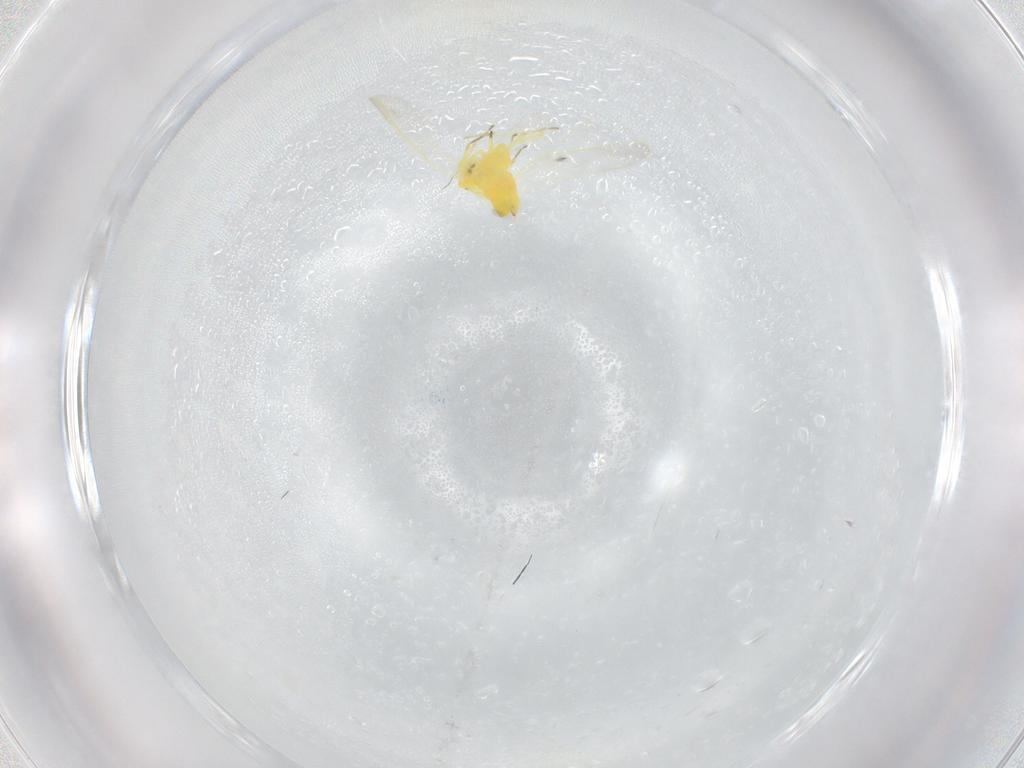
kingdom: Animalia
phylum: Arthropoda
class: Insecta
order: Hemiptera
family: Aleyrodidae
